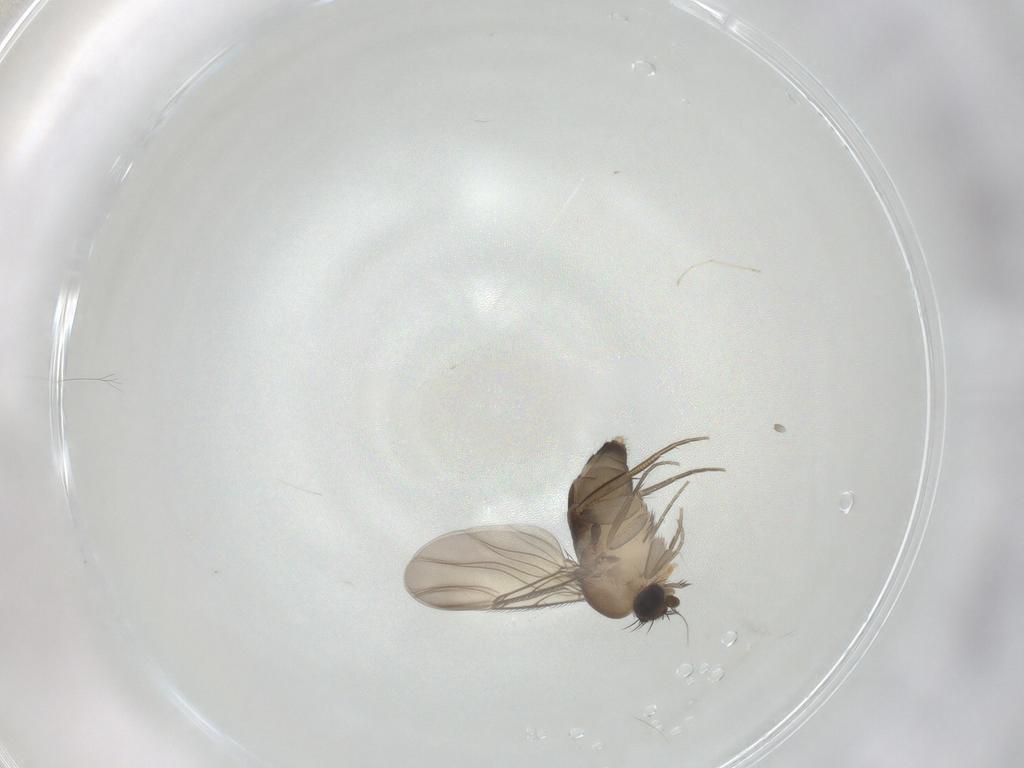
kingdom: Animalia
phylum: Arthropoda
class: Insecta
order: Diptera
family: Phoridae
